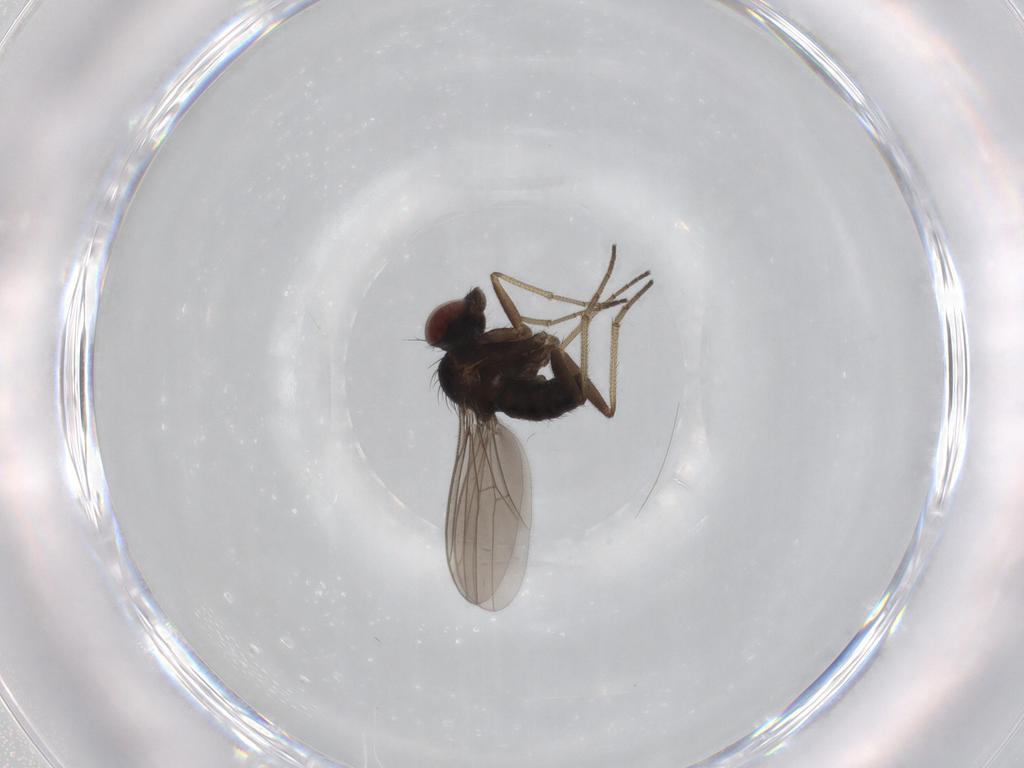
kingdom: Animalia
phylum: Arthropoda
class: Insecta
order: Diptera
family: Dolichopodidae
